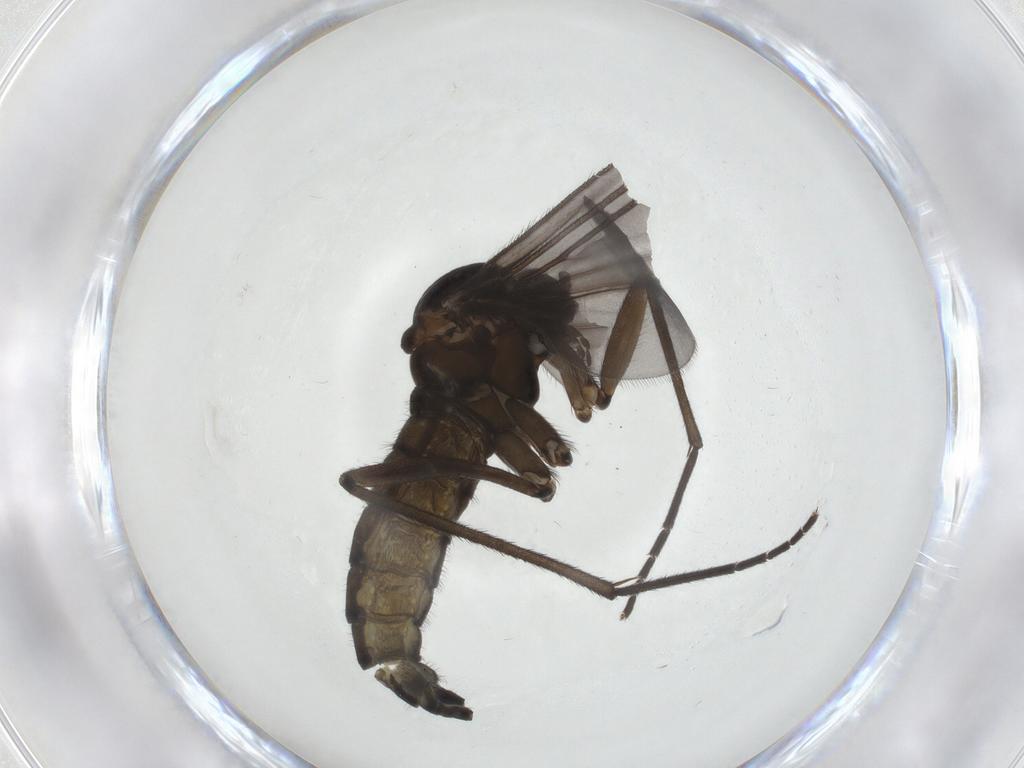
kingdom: Animalia
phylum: Arthropoda
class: Insecta
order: Diptera
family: Sciaridae
